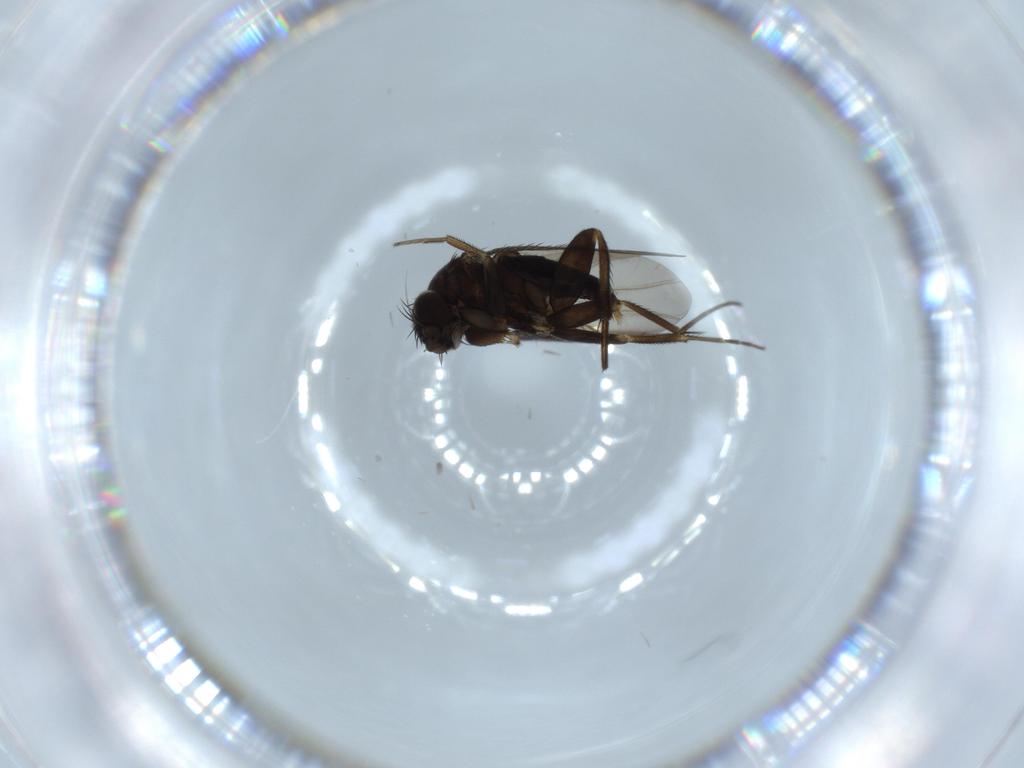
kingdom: Animalia
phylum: Arthropoda
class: Insecta
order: Diptera
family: Phoridae
